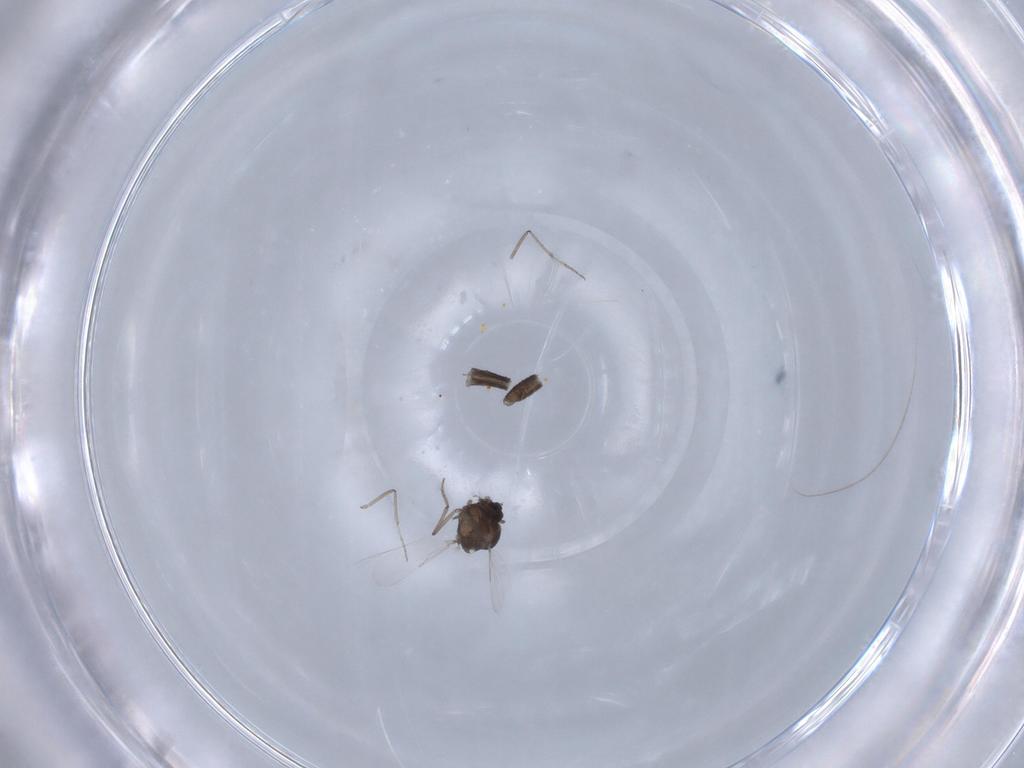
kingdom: Animalia
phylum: Arthropoda
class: Insecta
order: Diptera
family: Ceratopogonidae
